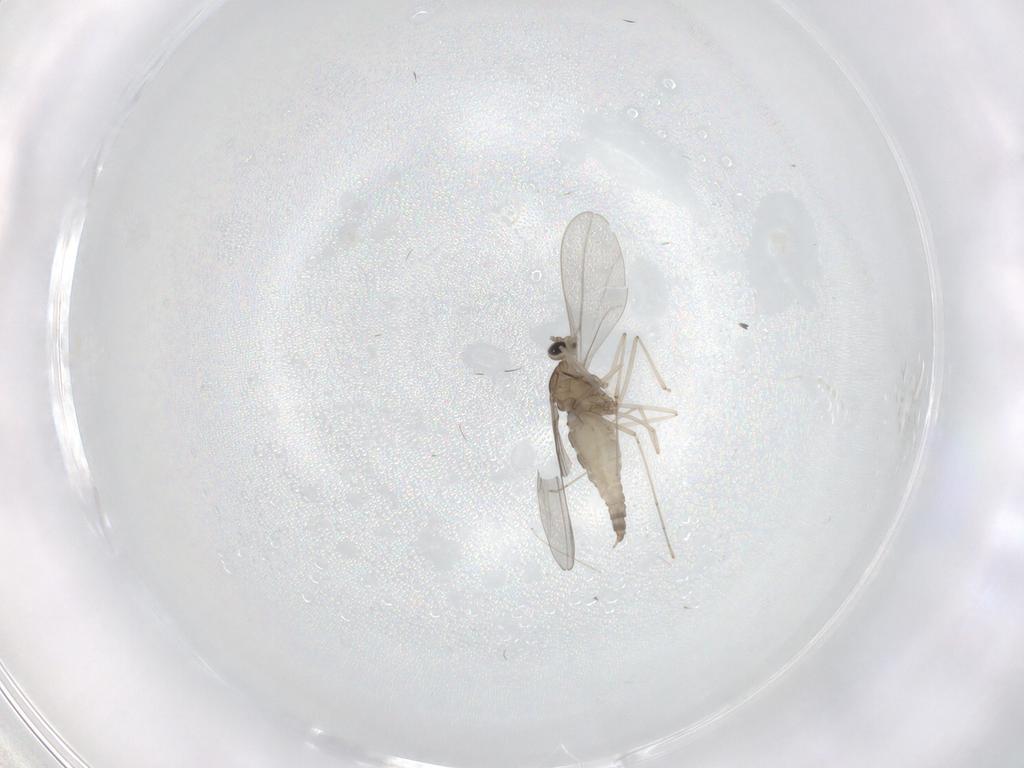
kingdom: Animalia
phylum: Arthropoda
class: Insecta
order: Diptera
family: Cecidomyiidae
